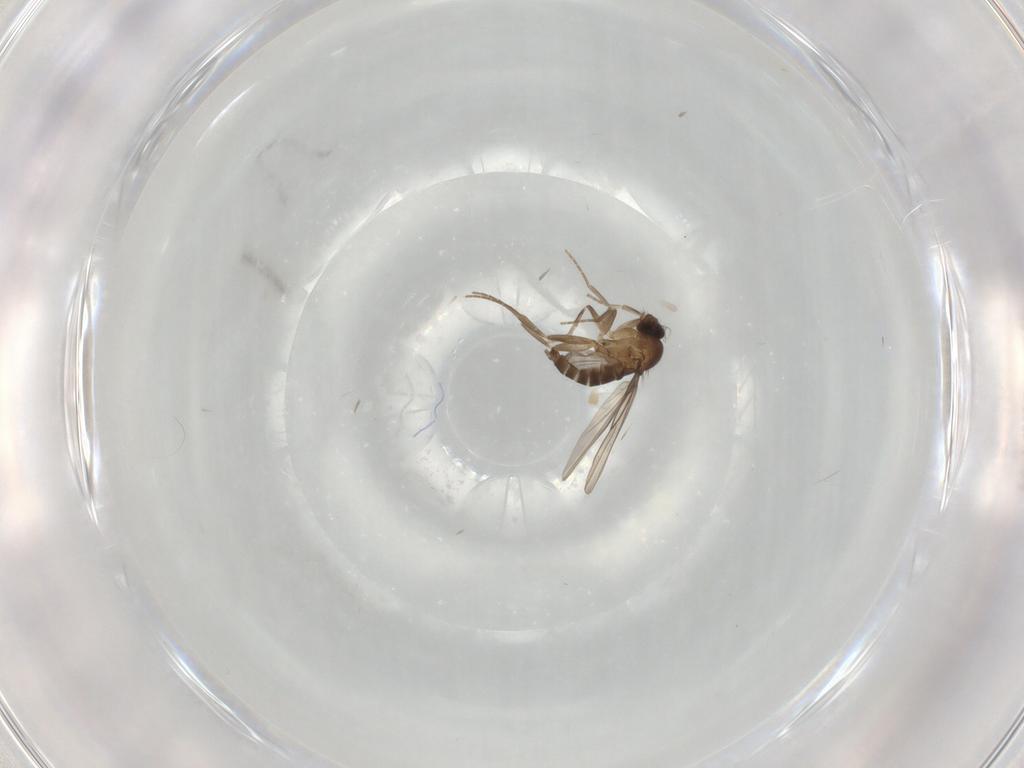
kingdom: Animalia
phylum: Arthropoda
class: Insecta
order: Diptera
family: Phoridae
